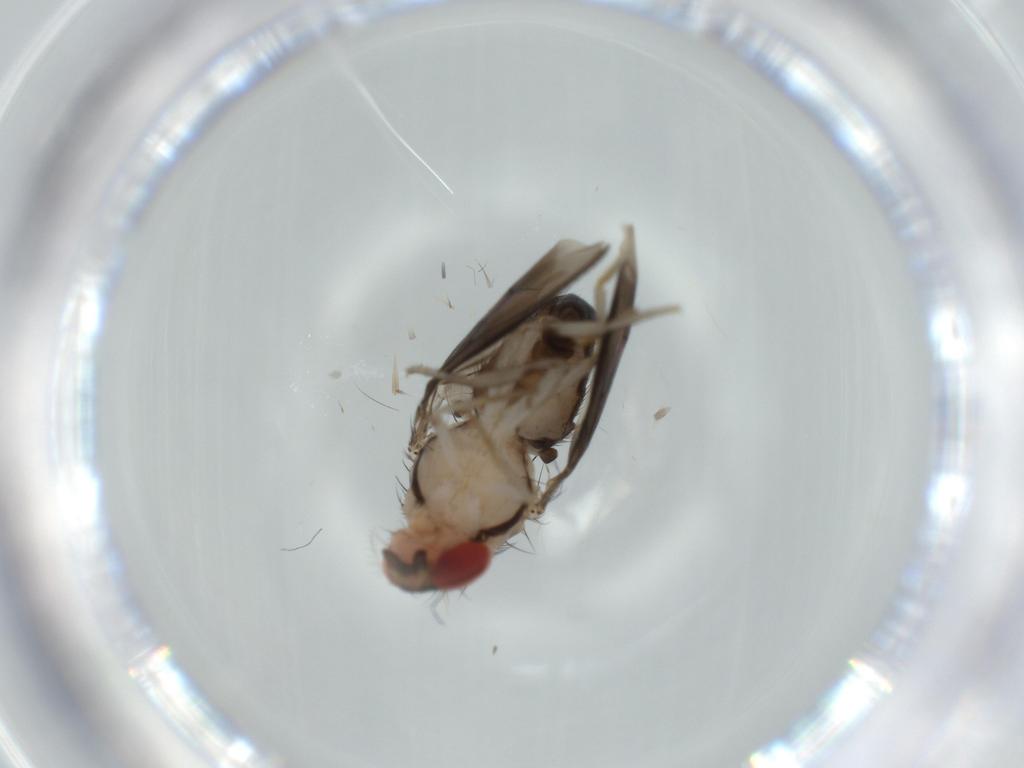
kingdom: Animalia
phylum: Arthropoda
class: Insecta
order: Diptera
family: Drosophilidae
